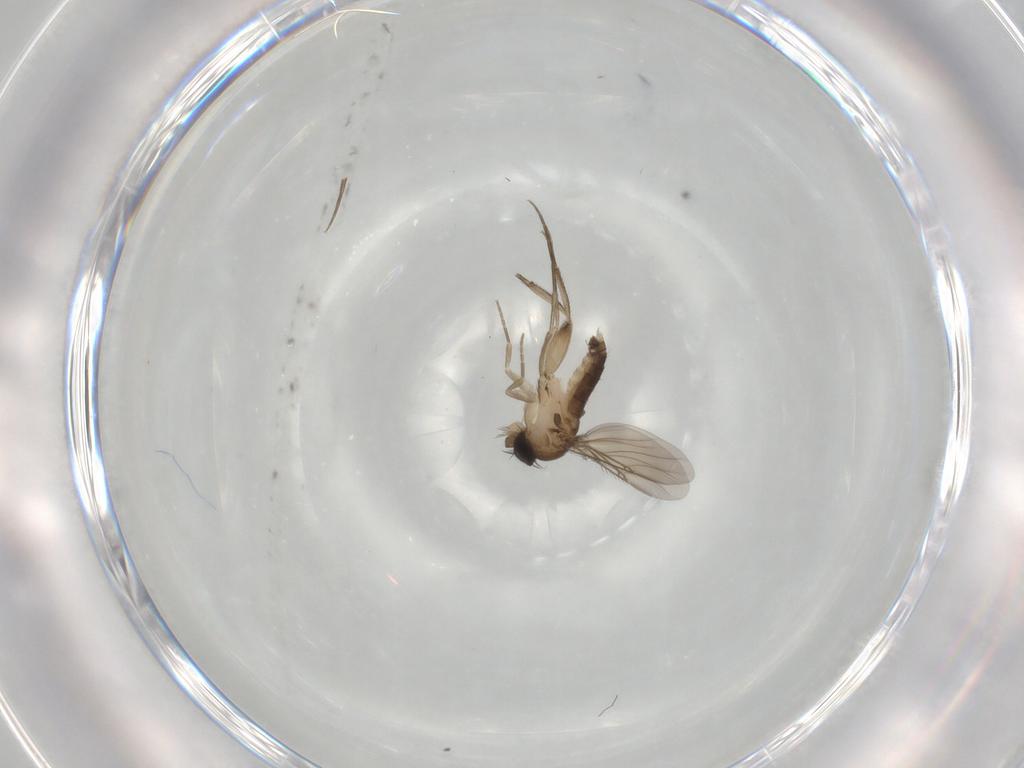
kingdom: Animalia
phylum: Arthropoda
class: Insecta
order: Diptera
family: Phoridae
